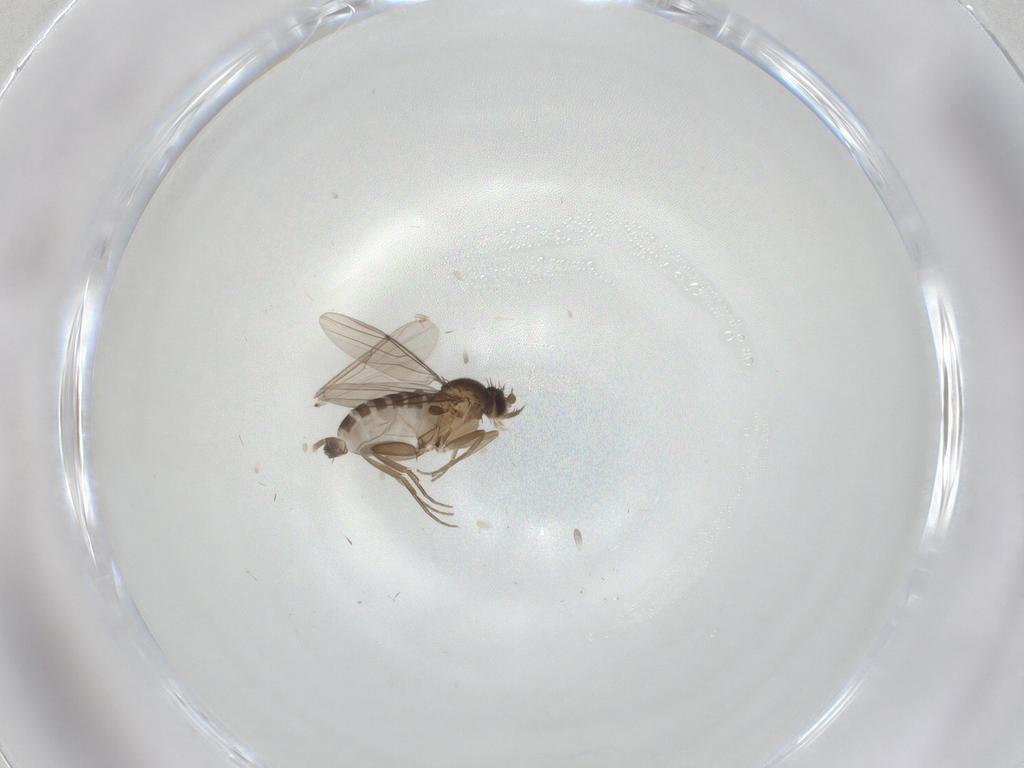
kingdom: Animalia
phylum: Arthropoda
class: Insecta
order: Diptera
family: Phoridae
